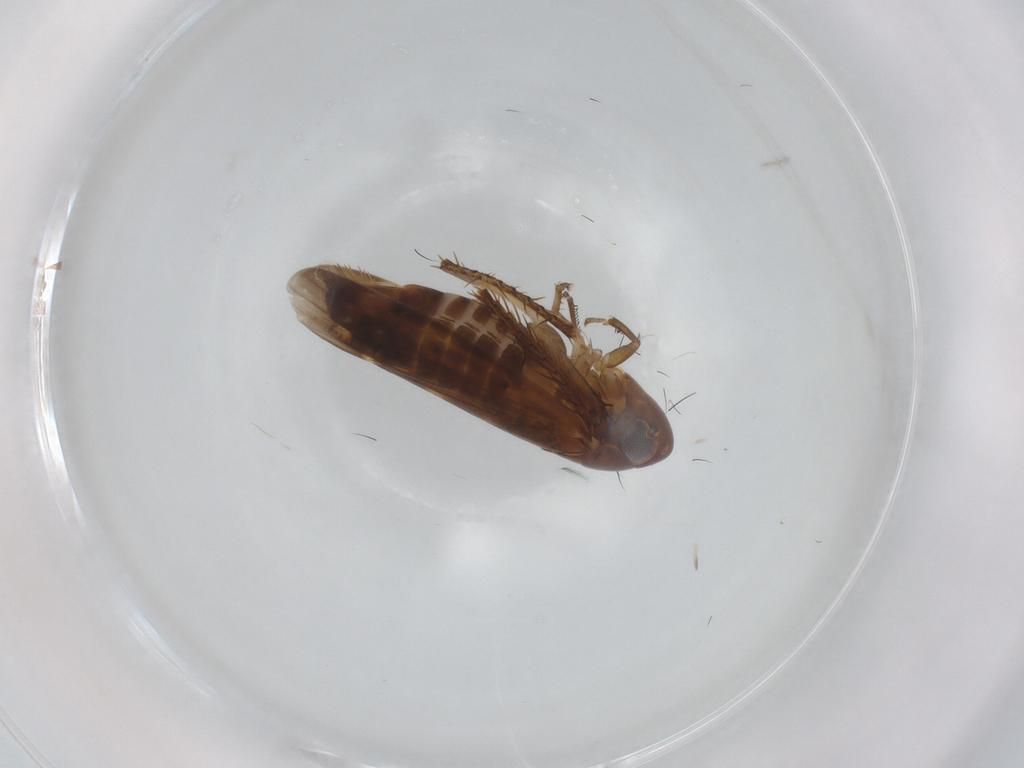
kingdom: Animalia
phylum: Arthropoda
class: Insecta
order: Hemiptera
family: Cicadellidae
